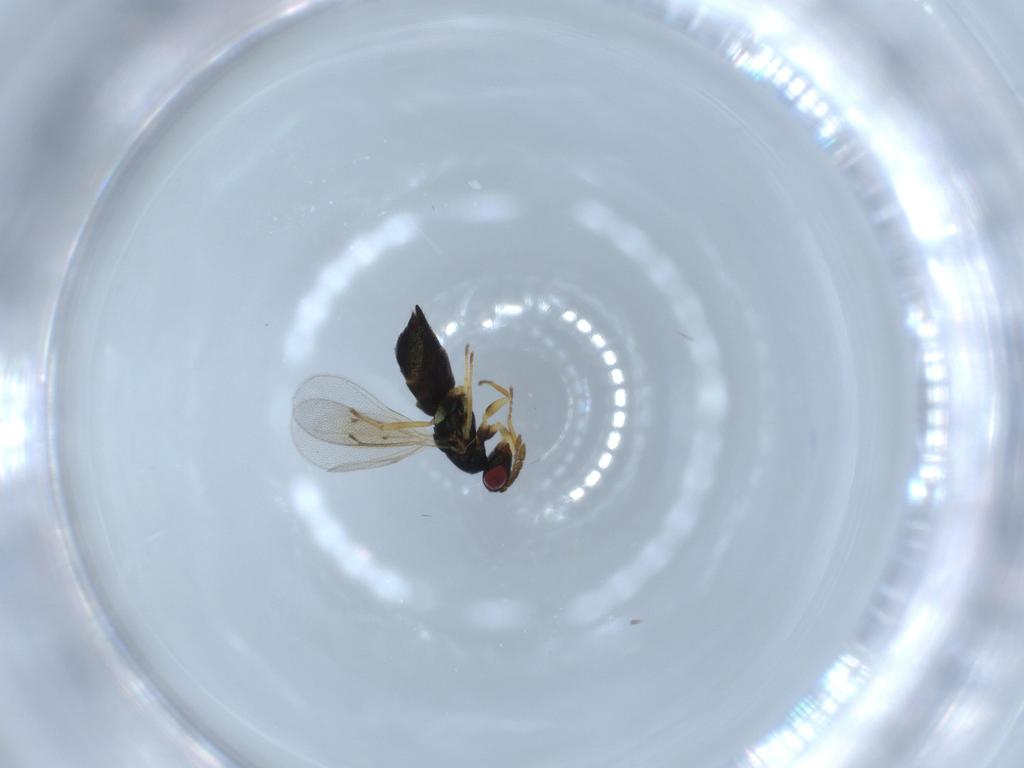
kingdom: Animalia
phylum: Arthropoda
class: Insecta
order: Hymenoptera
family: Eulophidae
